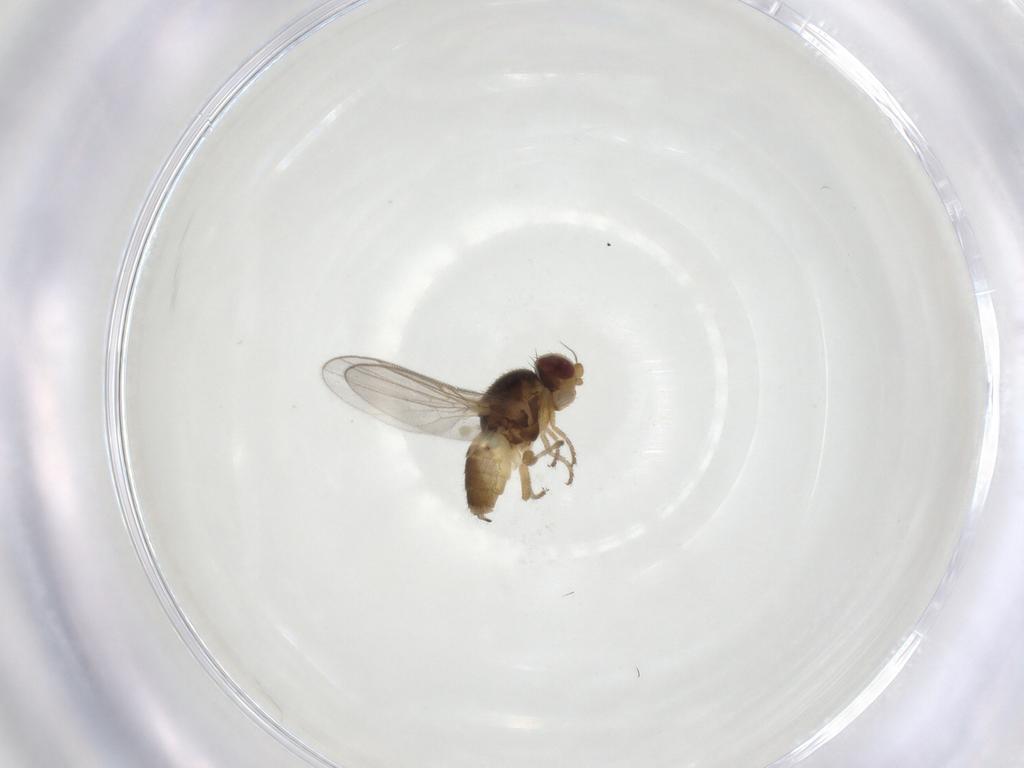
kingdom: Animalia
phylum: Arthropoda
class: Insecta
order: Diptera
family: Chloropidae
